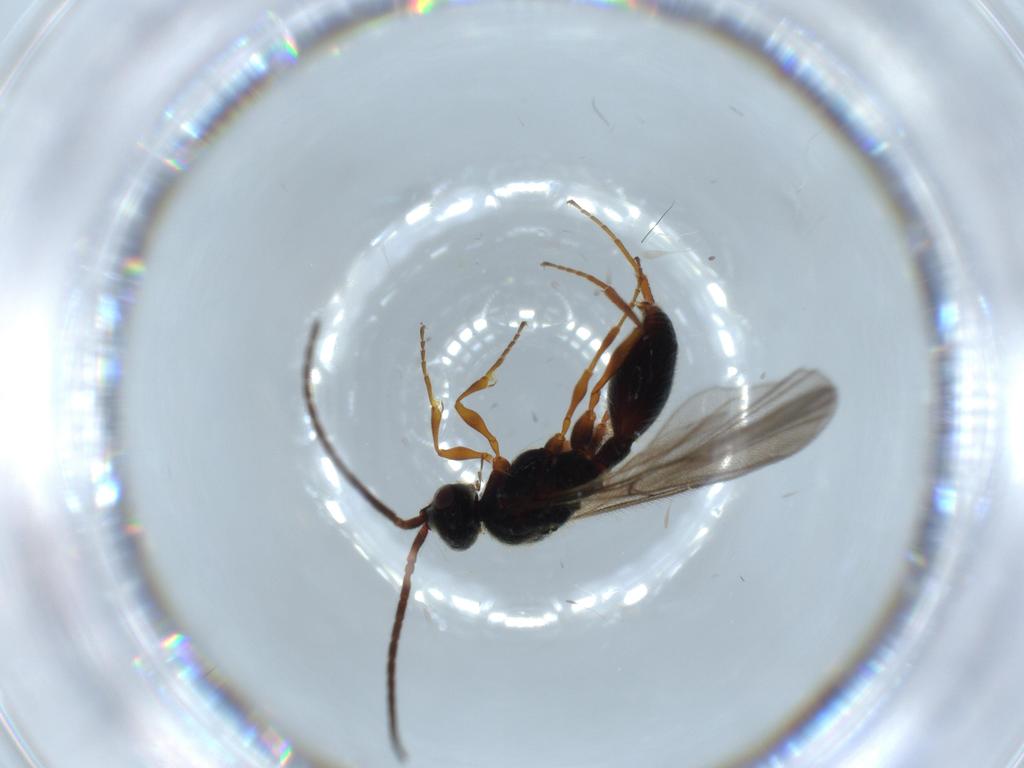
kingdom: Animalia
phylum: Arthropoda
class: Insecta
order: Hymenoptera
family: Diapriidae
